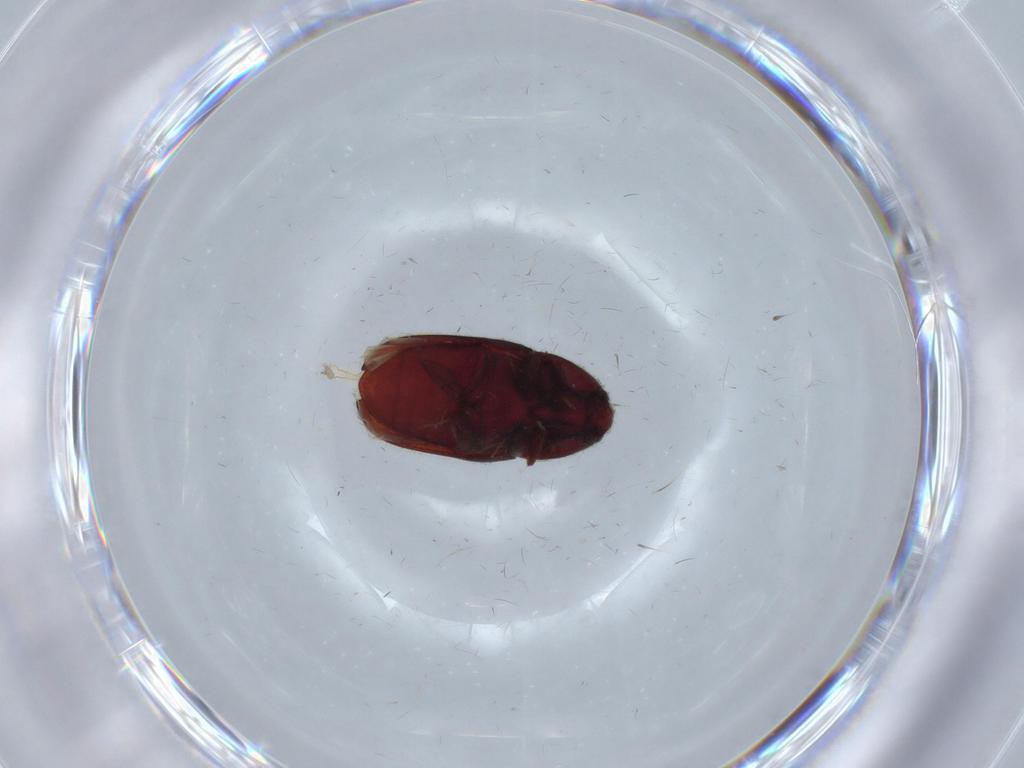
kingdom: Animalia
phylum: Arthropoda
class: Insecta
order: Coleoptera
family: Throscidae
